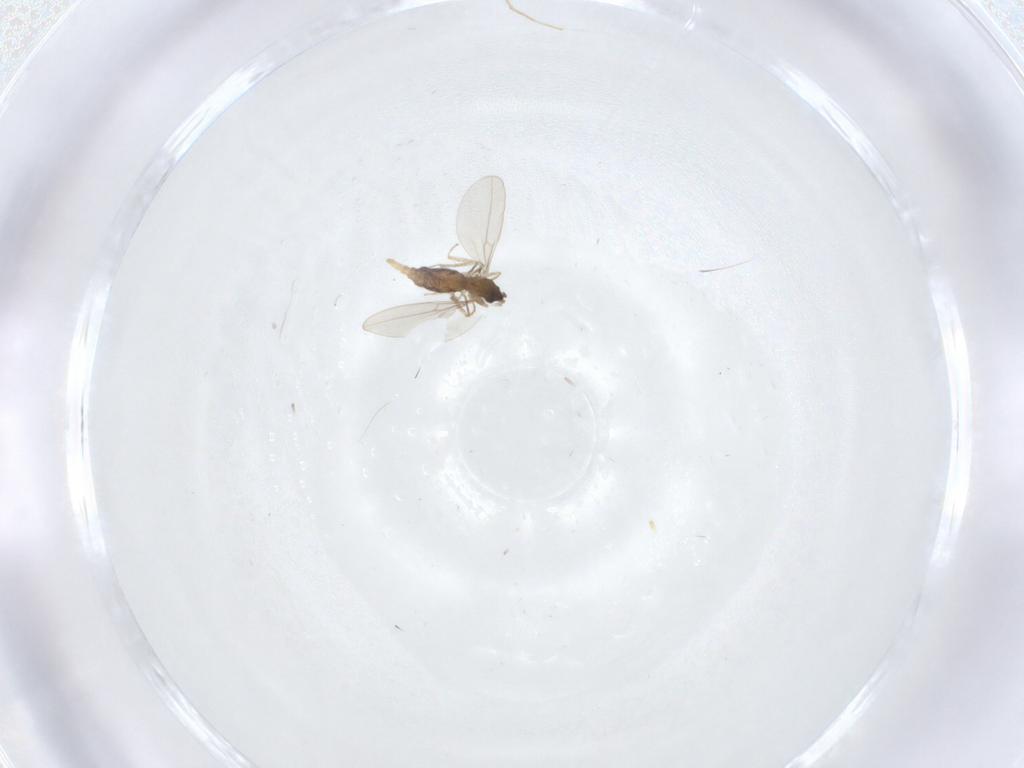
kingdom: Animalia
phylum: Arthropoda
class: Insecta
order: Diptera
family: Cecidomyiidae
